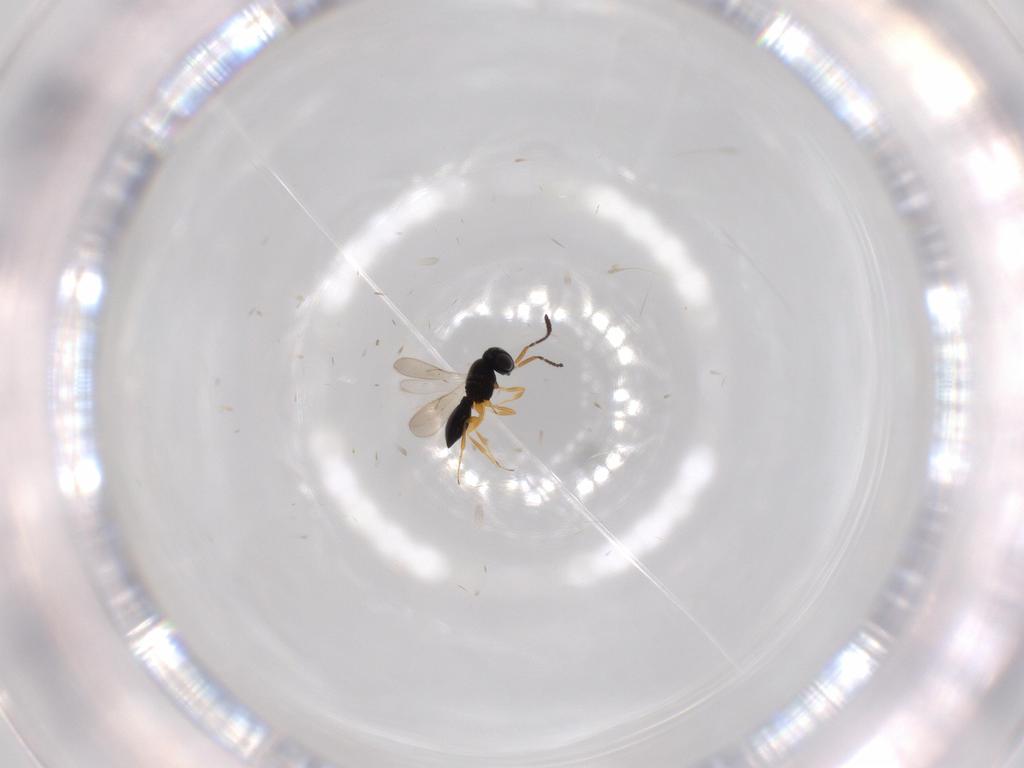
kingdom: Animalia
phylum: Arthropoda
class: Insecta
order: Hymenoptera
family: Scelionidae
